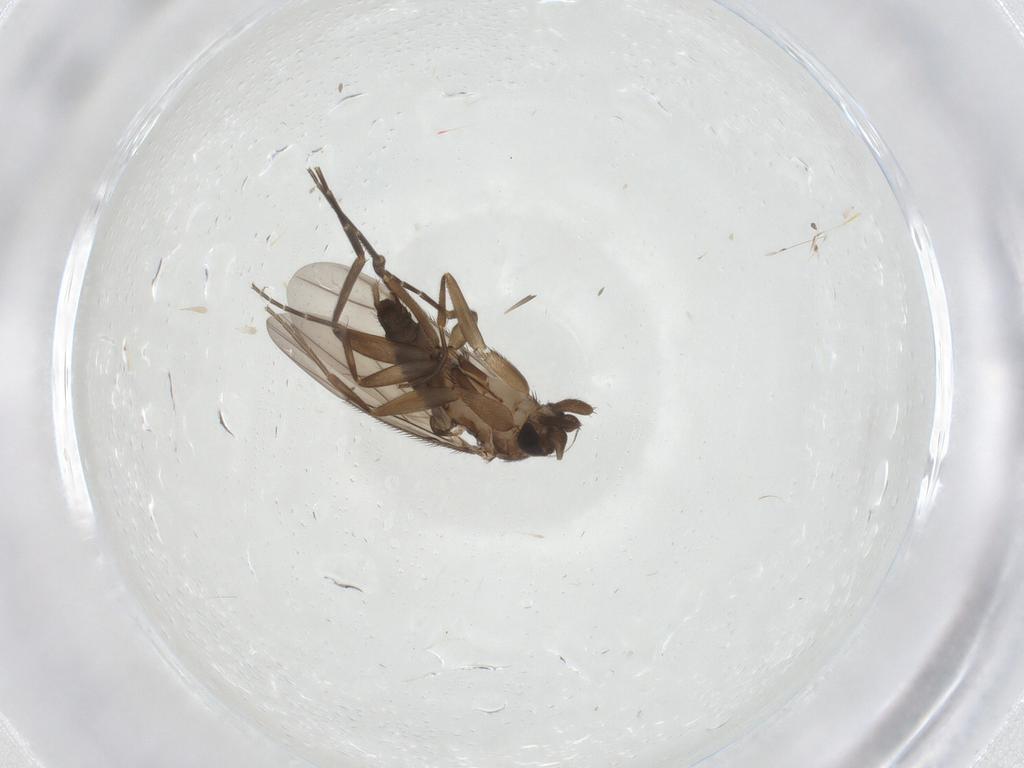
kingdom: Animalia
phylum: Arthropoda
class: Insecta
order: Diptera
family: Phoridae
